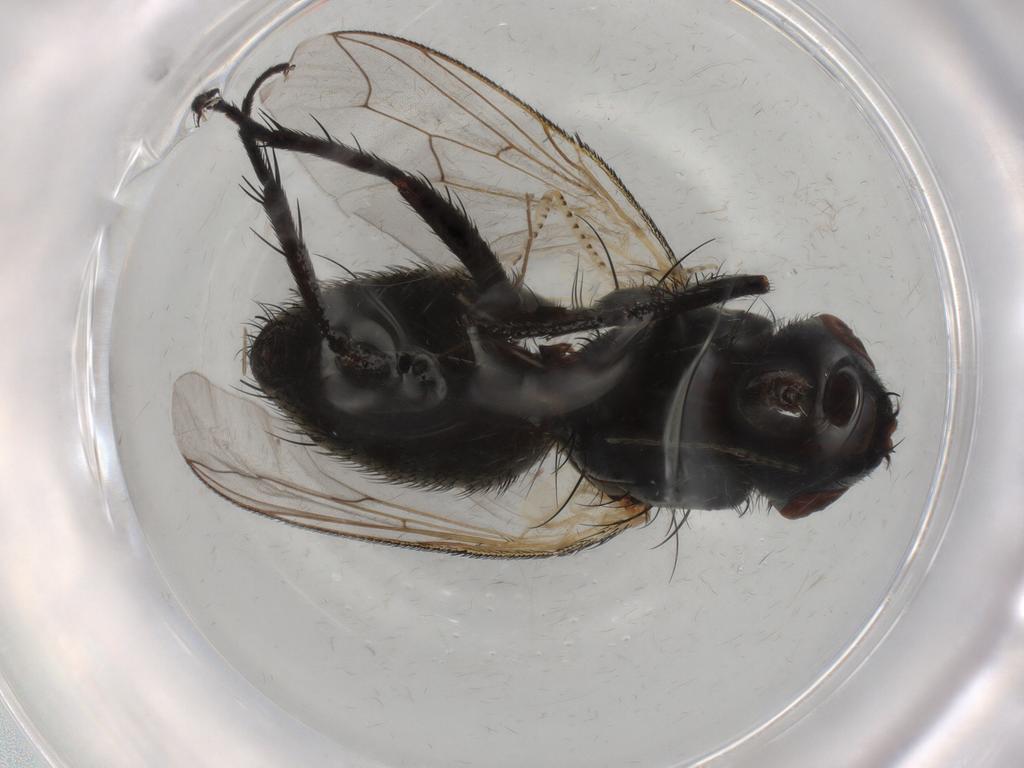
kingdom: Animalia
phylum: Arthropoda
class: Insecta
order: Diptera
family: Sarcophagidae
